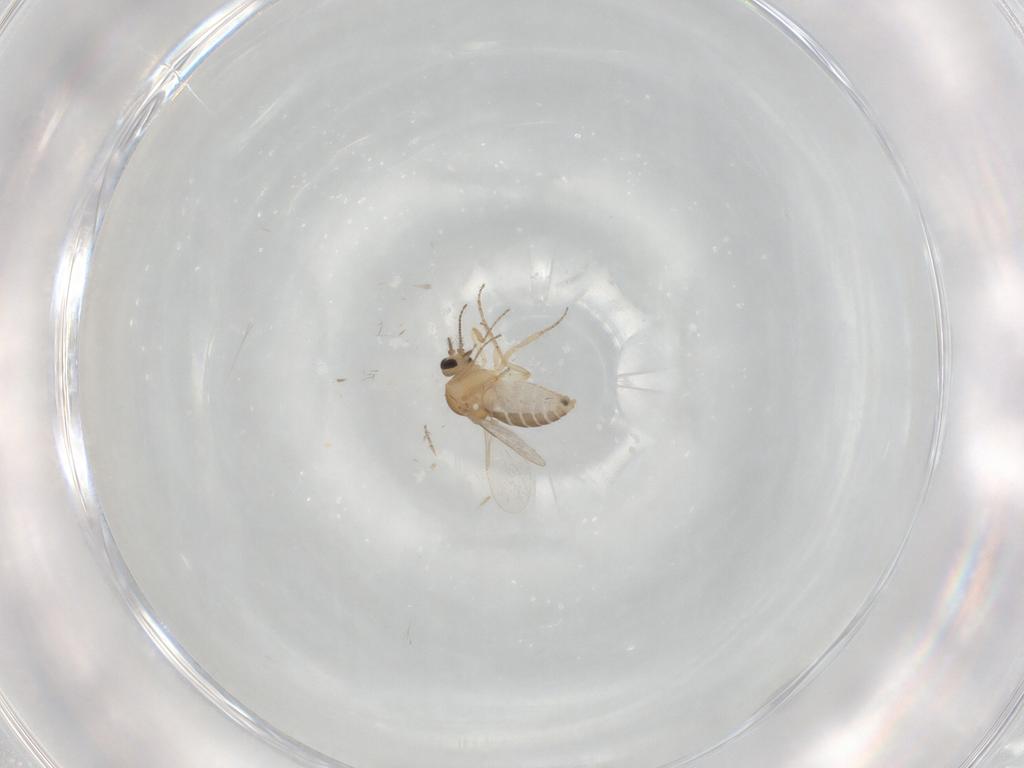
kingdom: Animalia
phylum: Arthropoda
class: Insecta
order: Diptera
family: Ceratopogonidae
